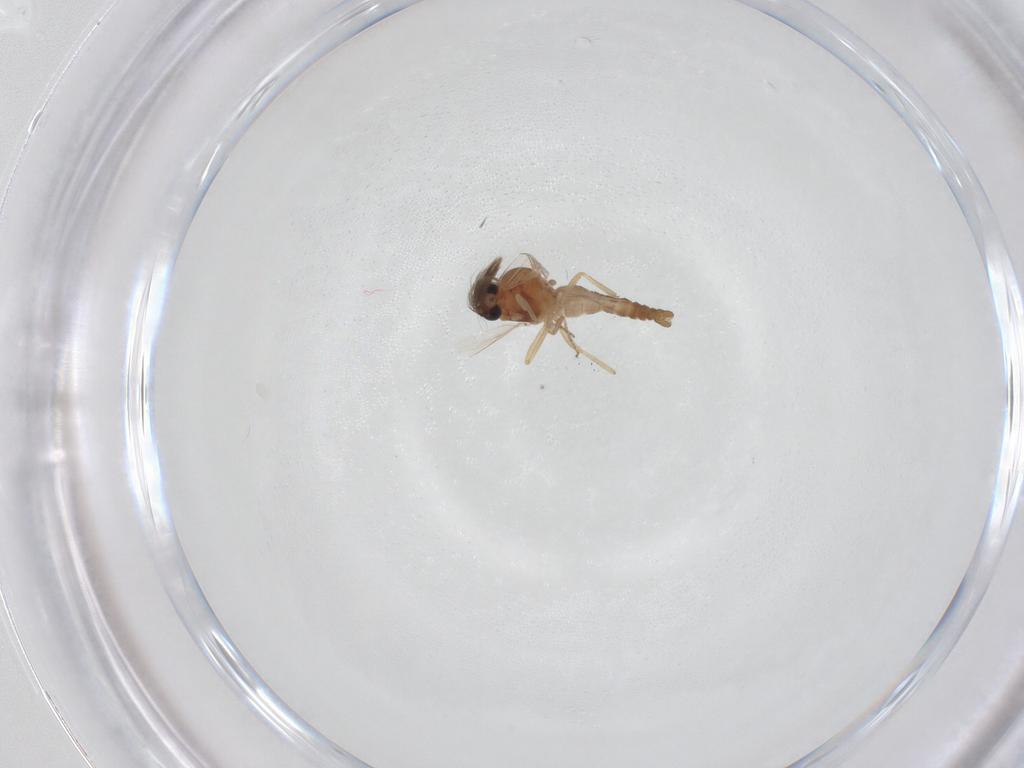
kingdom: Animalia
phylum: Arthropoda
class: Insecta
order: Diptera
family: Ceratopogonidae
